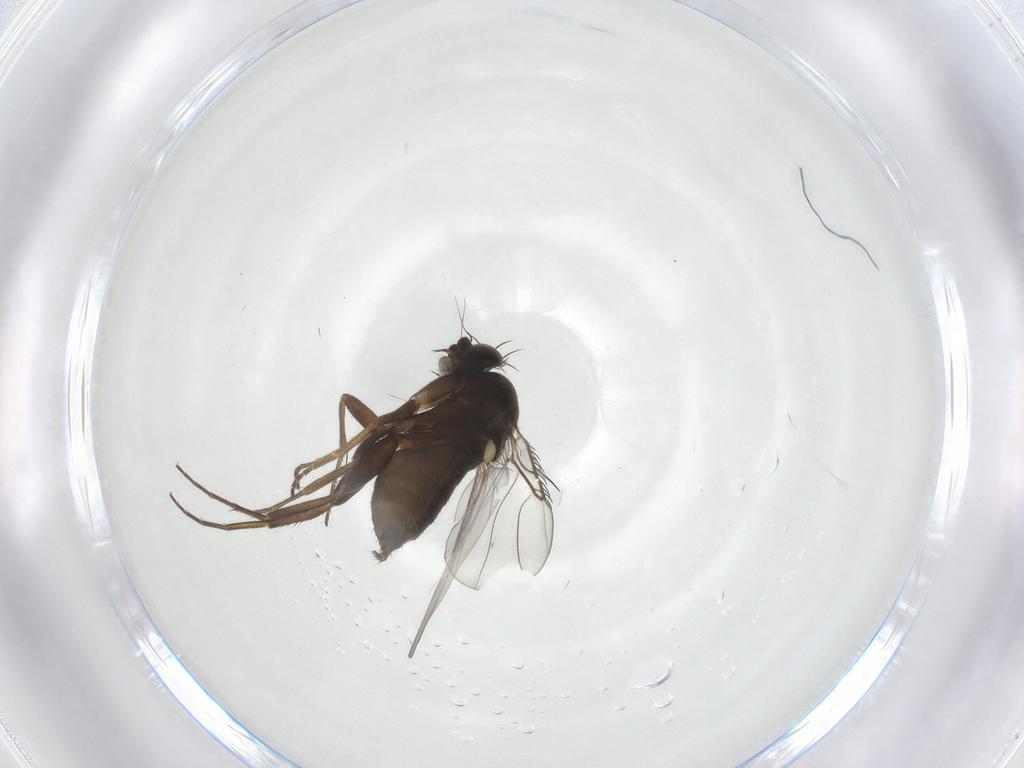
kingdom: Animalia
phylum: Arthropoda
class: Insecta
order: Diptera
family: Phoridae
